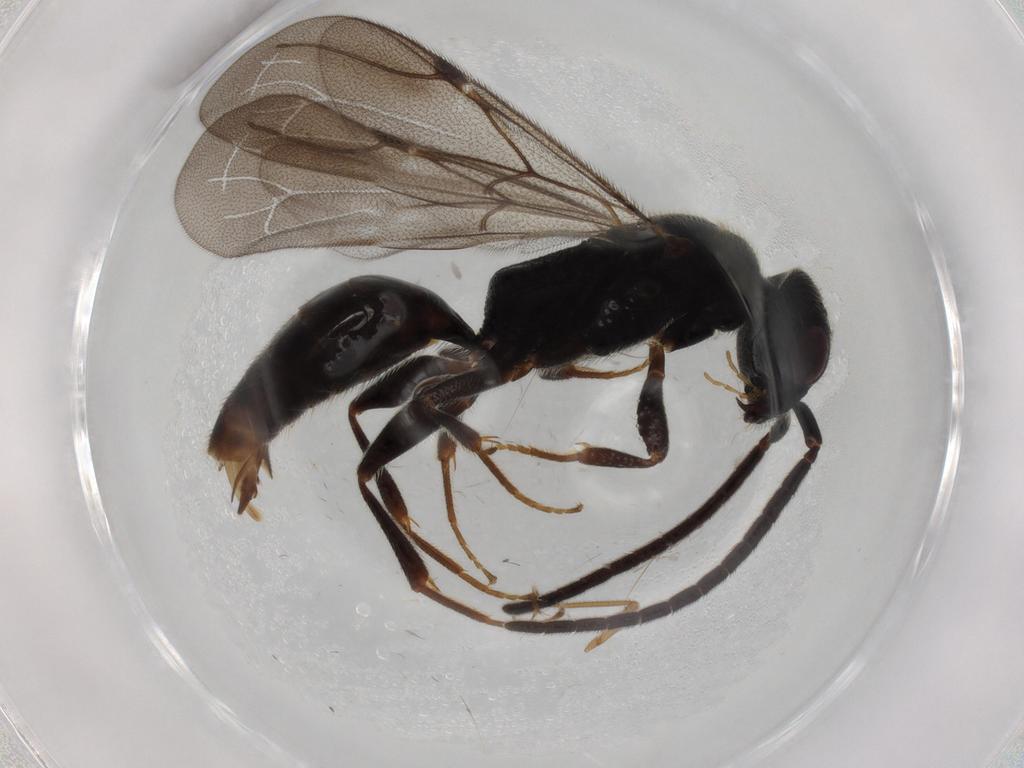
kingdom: Animalia
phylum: Arthropoda
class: Insecta
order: Hymenoptera
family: Bethylidae
